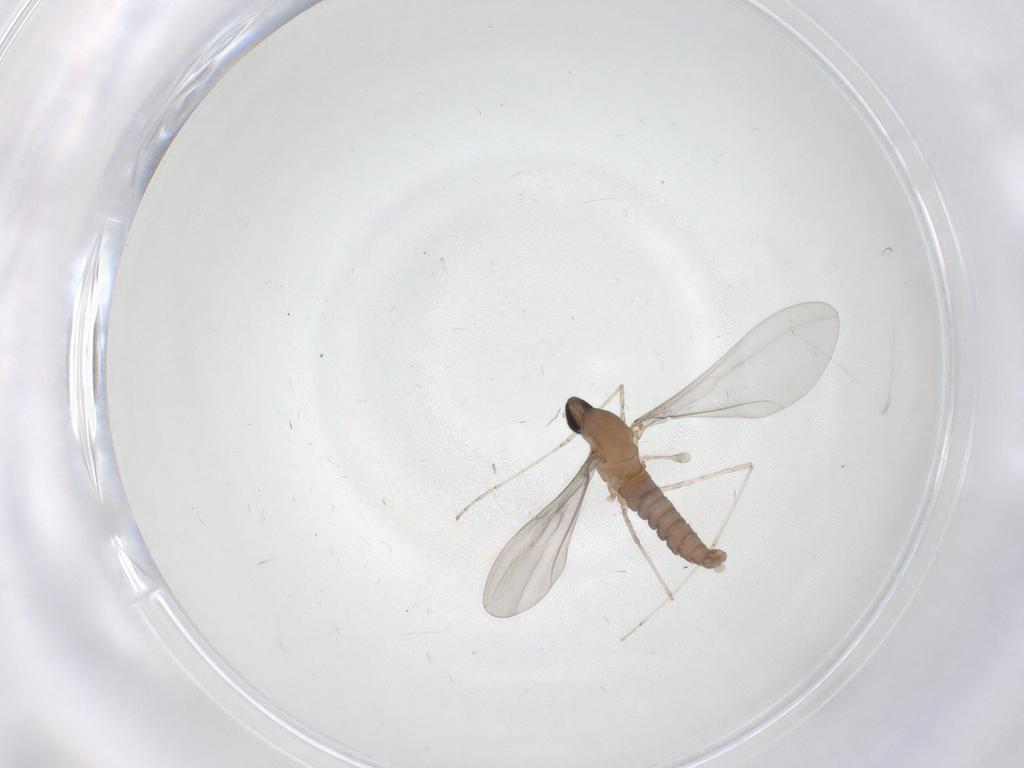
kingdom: Animalia
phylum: Arthropoda
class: Insecta
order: Diptera
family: Cecidomyiidae
